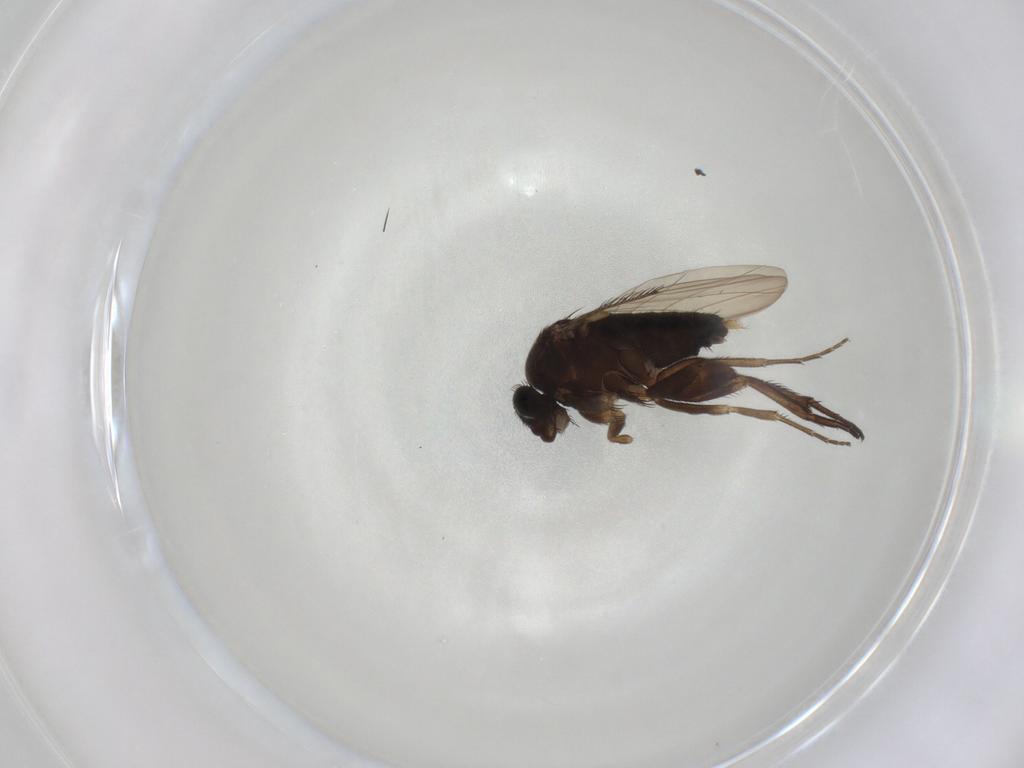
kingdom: Animalia
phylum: Arthropoda
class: Insecta
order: Diptera
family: Phoridae
